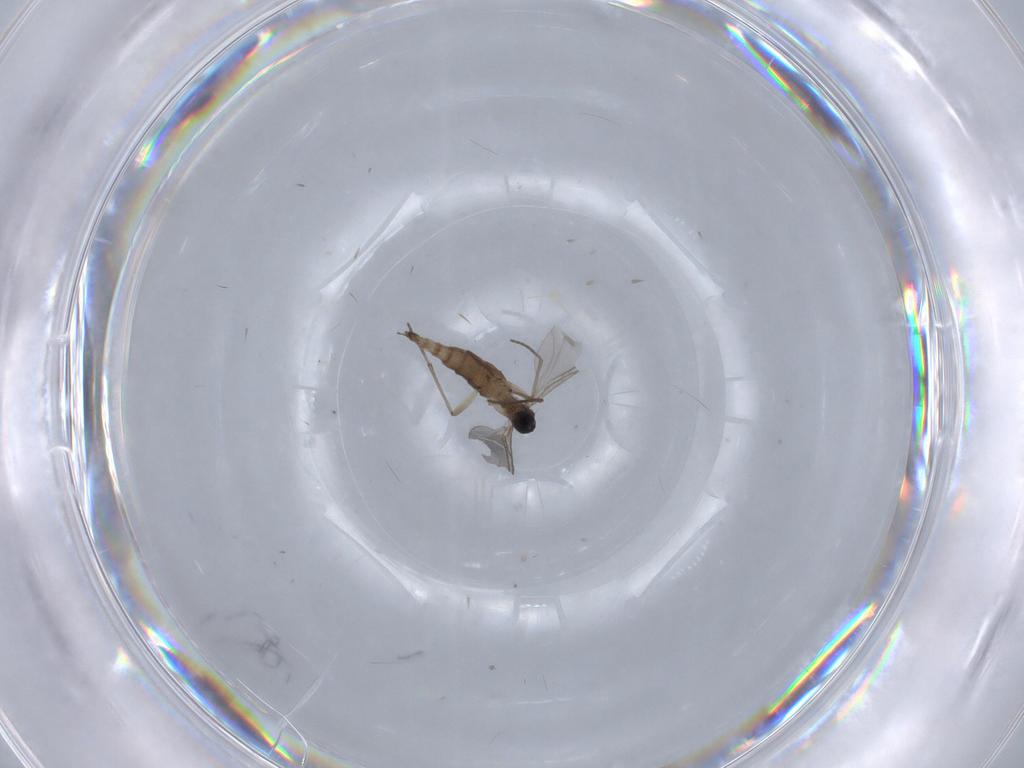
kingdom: Animalia
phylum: Arthropoda
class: Insecta
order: Diptera
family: Sciaridae
